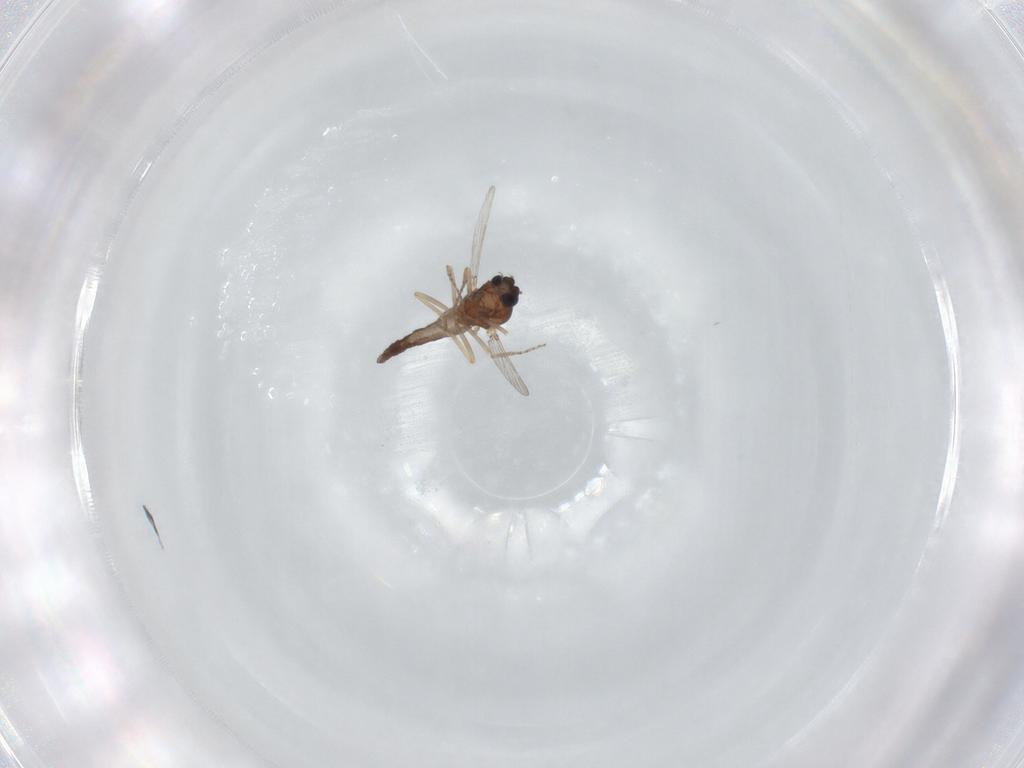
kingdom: Animalia
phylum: Arthropoda
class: Insecta
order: Diptera
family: Ceratopogonidae
